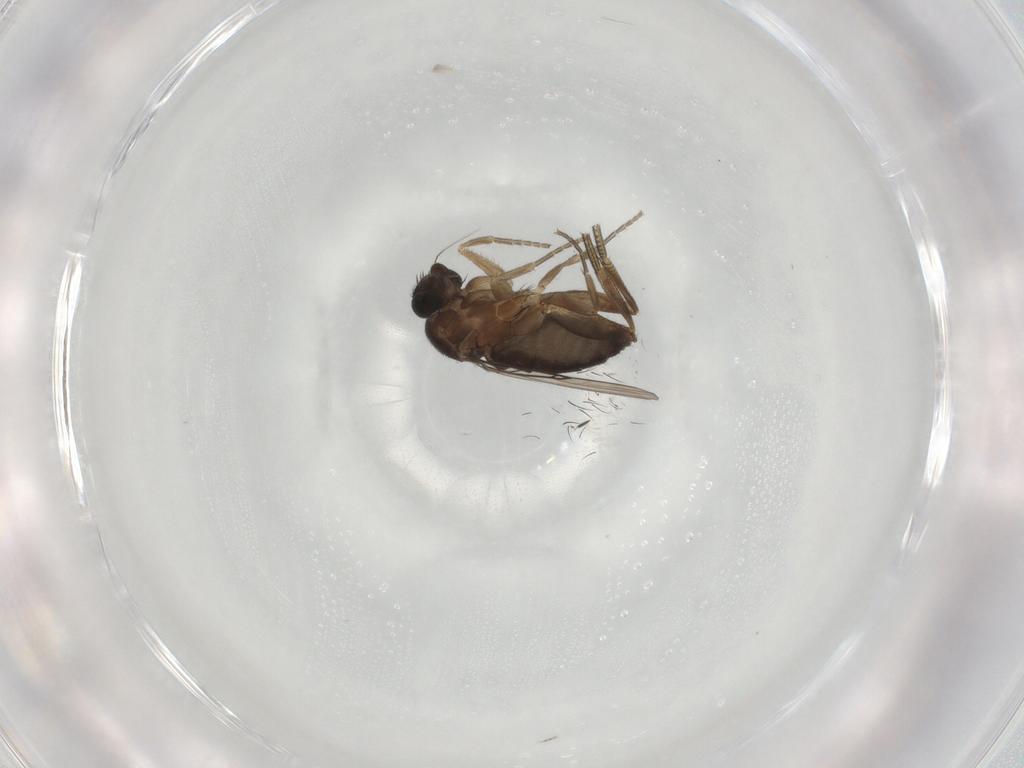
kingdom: Animalia
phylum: Arthropoda
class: Insecta
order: Diptera
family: Phoridae
